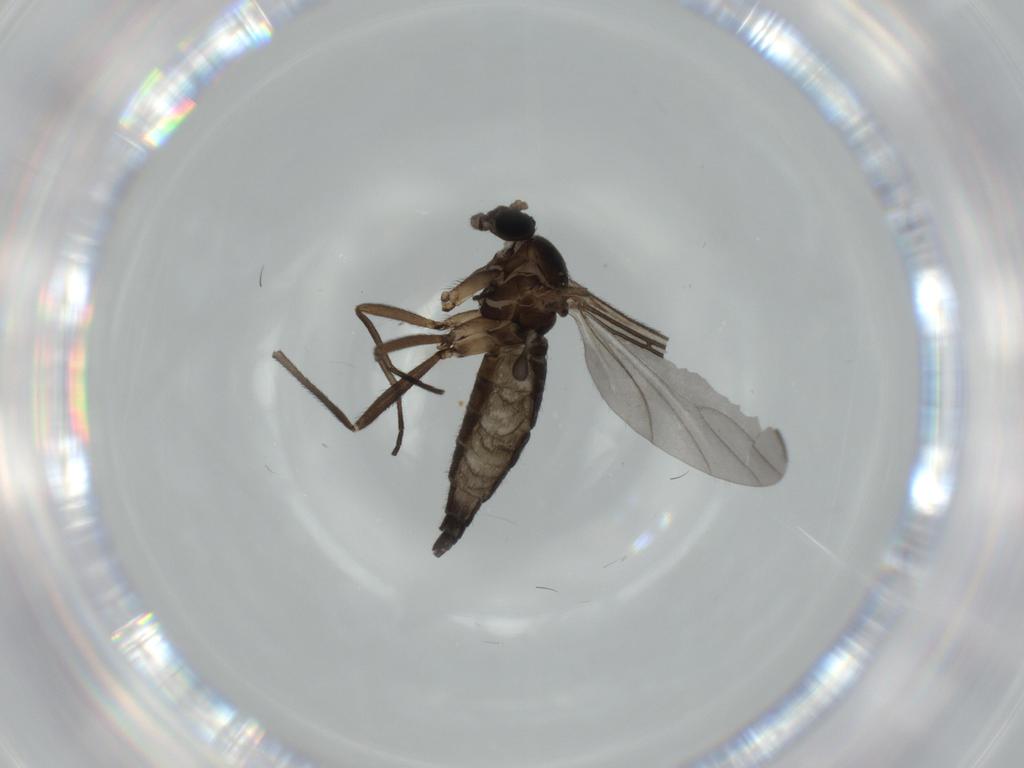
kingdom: Animalia
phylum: Arthropoda
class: Insecta
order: Diptera
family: Sciaridae
